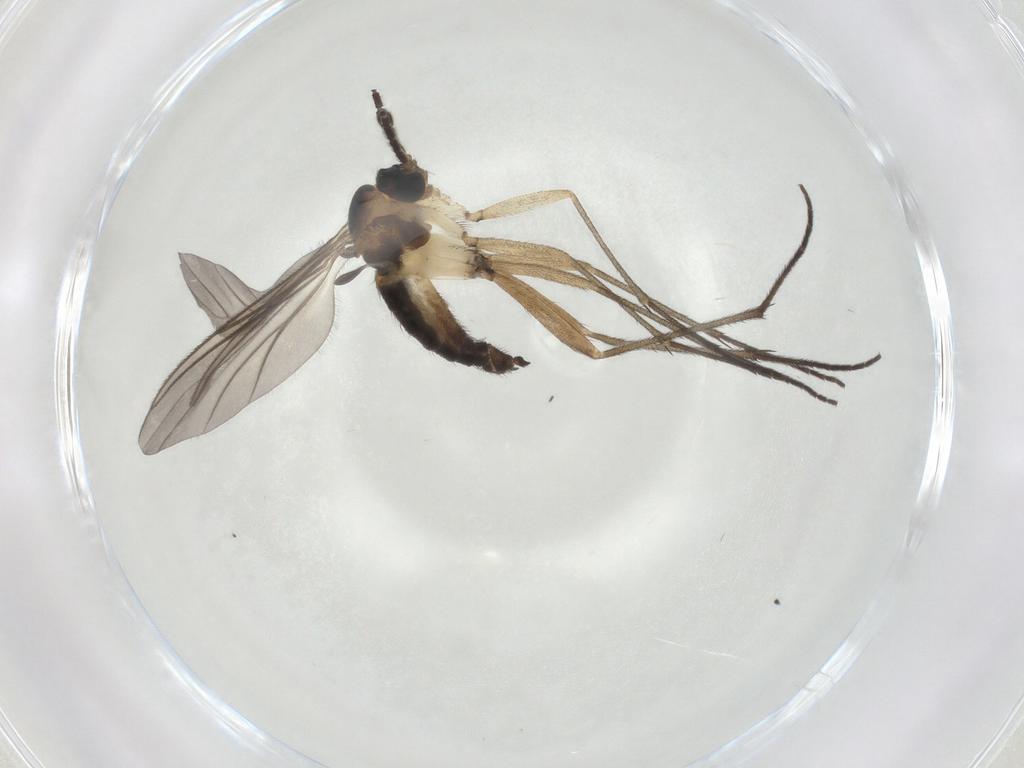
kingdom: Animalia
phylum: Arthropoda
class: Insecta
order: Diptera
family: Sciaridae
